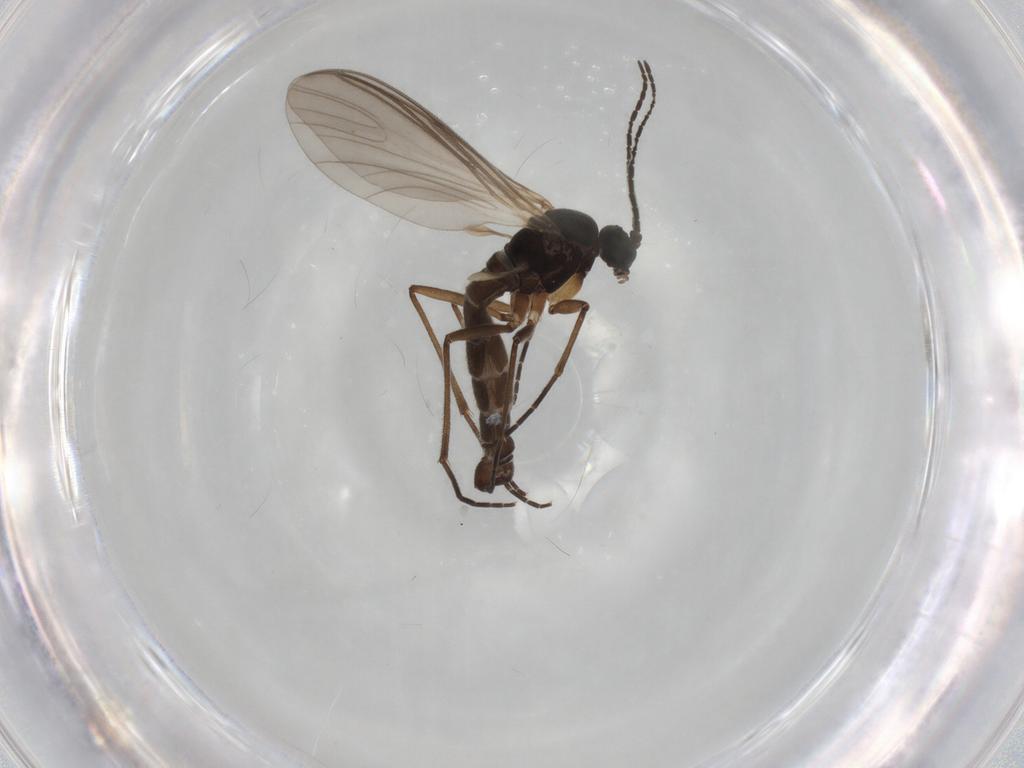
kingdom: Animalia
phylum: Arthropoda
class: Insecta
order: Diptera
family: Sciaridae
